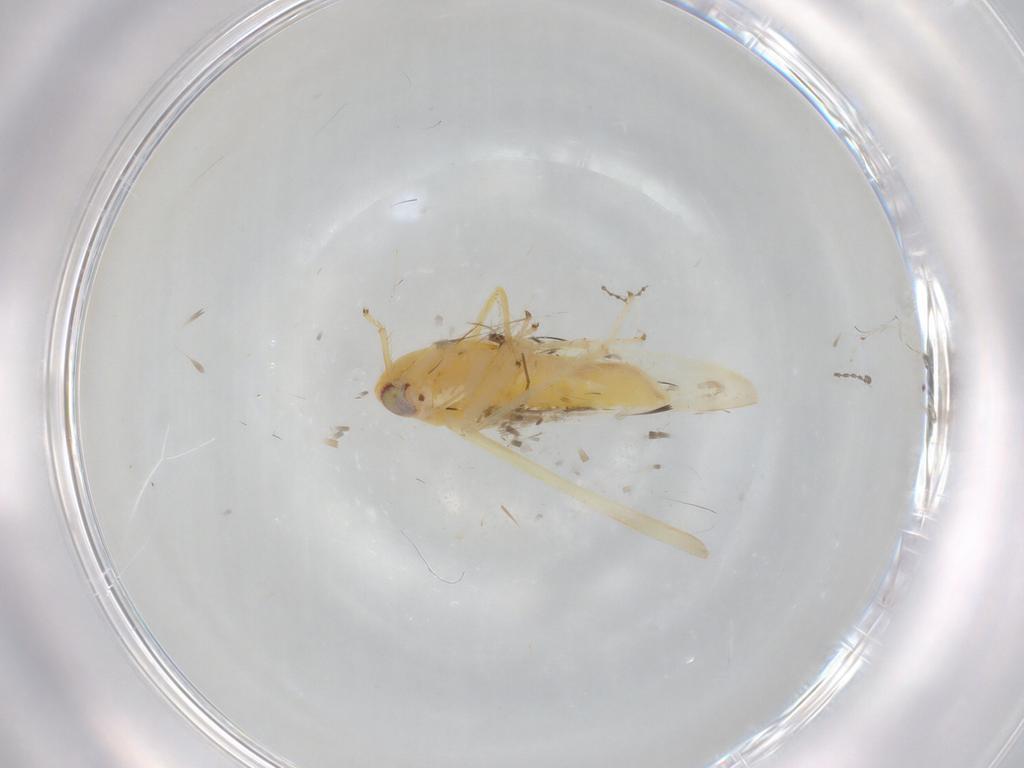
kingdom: Animalia
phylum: Arthropoda
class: Insecta
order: Hemiptera
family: Cicadellidae
